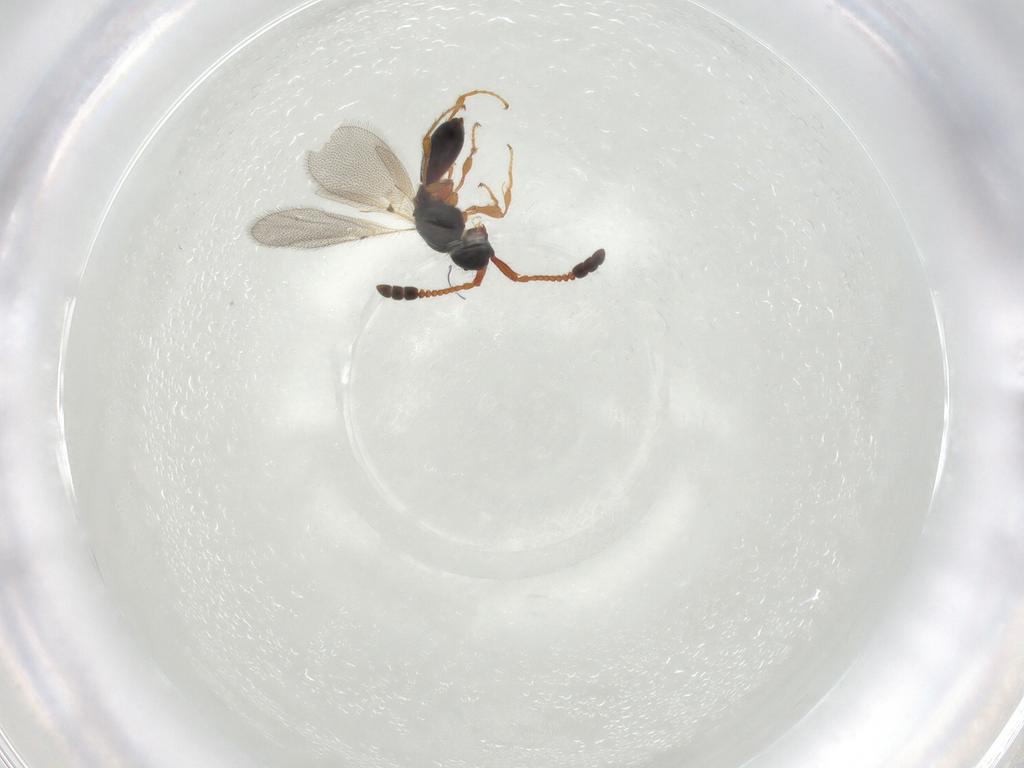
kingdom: Animalia
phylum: Arthropoda
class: Insecta
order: Hymenoptera
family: Diapriidae
